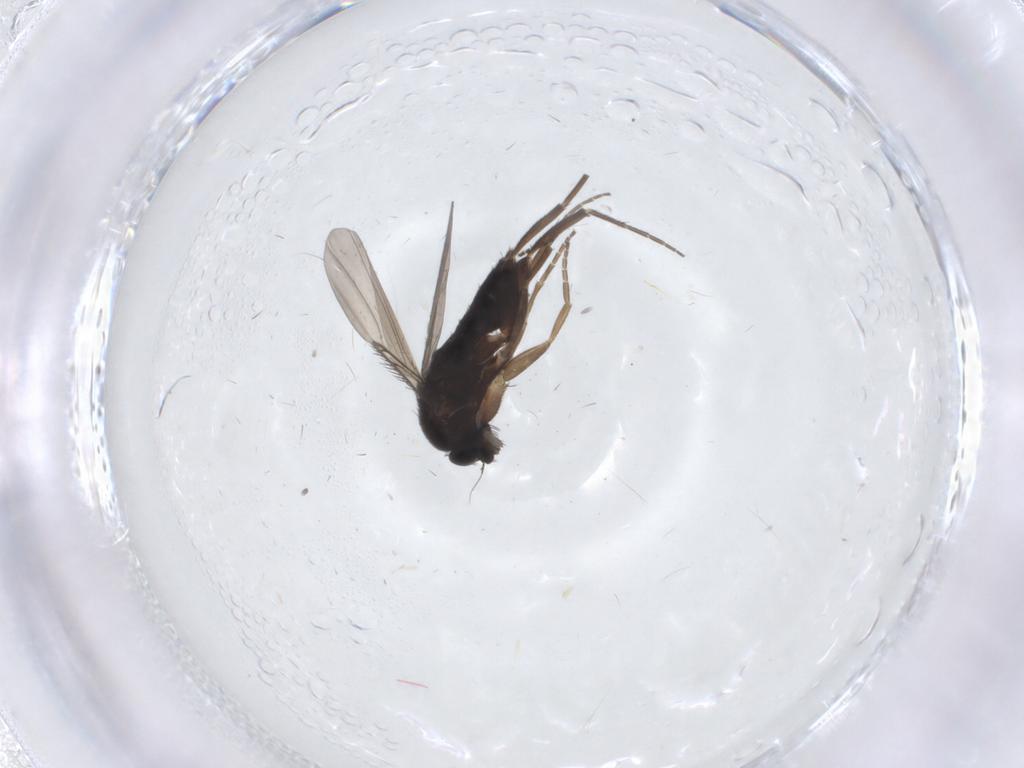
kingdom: Animalia
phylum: Arthropoda
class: Insecta
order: Diptera
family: Phoridae
